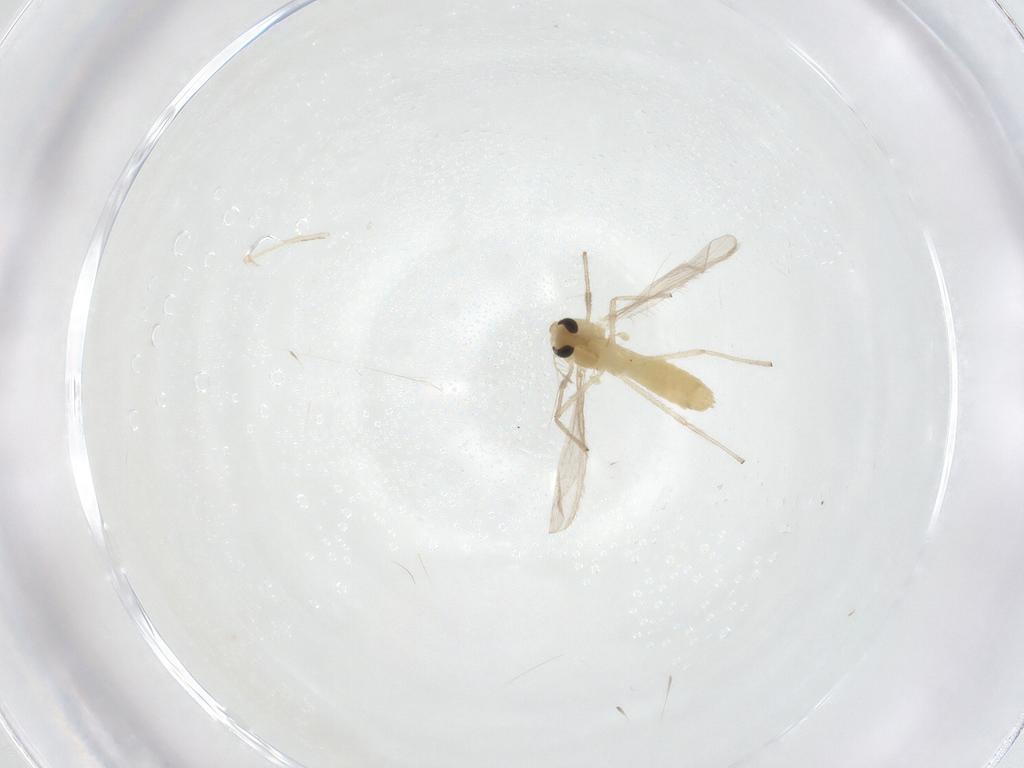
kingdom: Animalia
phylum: Arthropoda
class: Insecta
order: Diptera
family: Chironomidae
